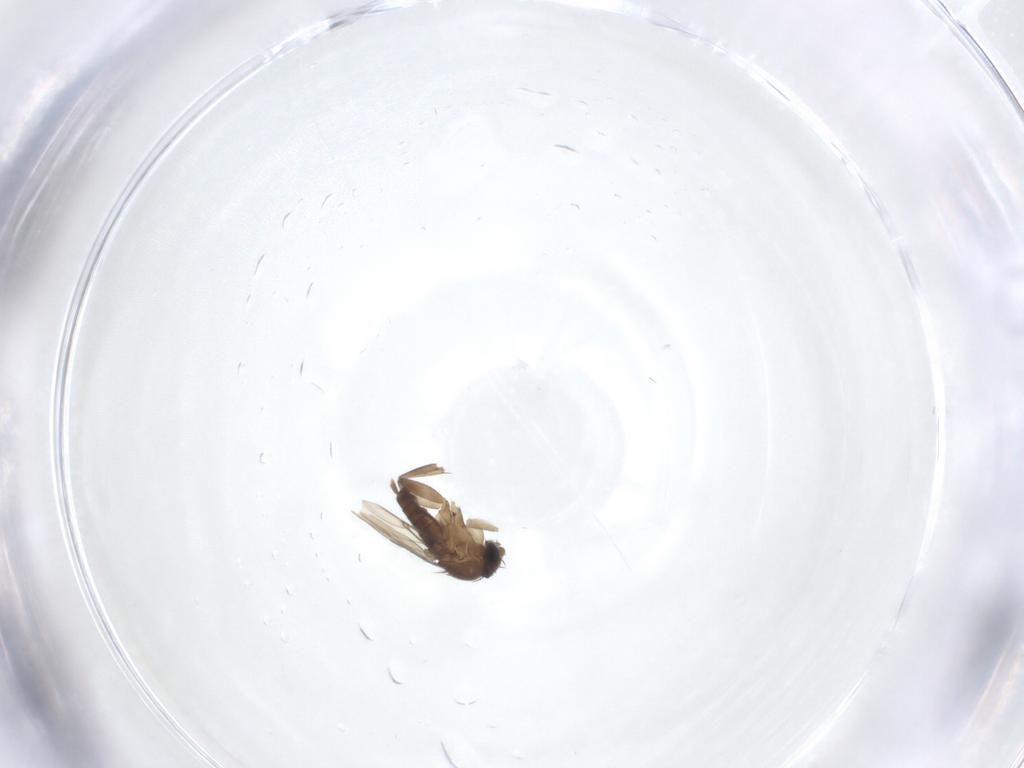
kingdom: Animalia
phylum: Arthropoda
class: Insecta
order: Diptera
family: Phoridae
